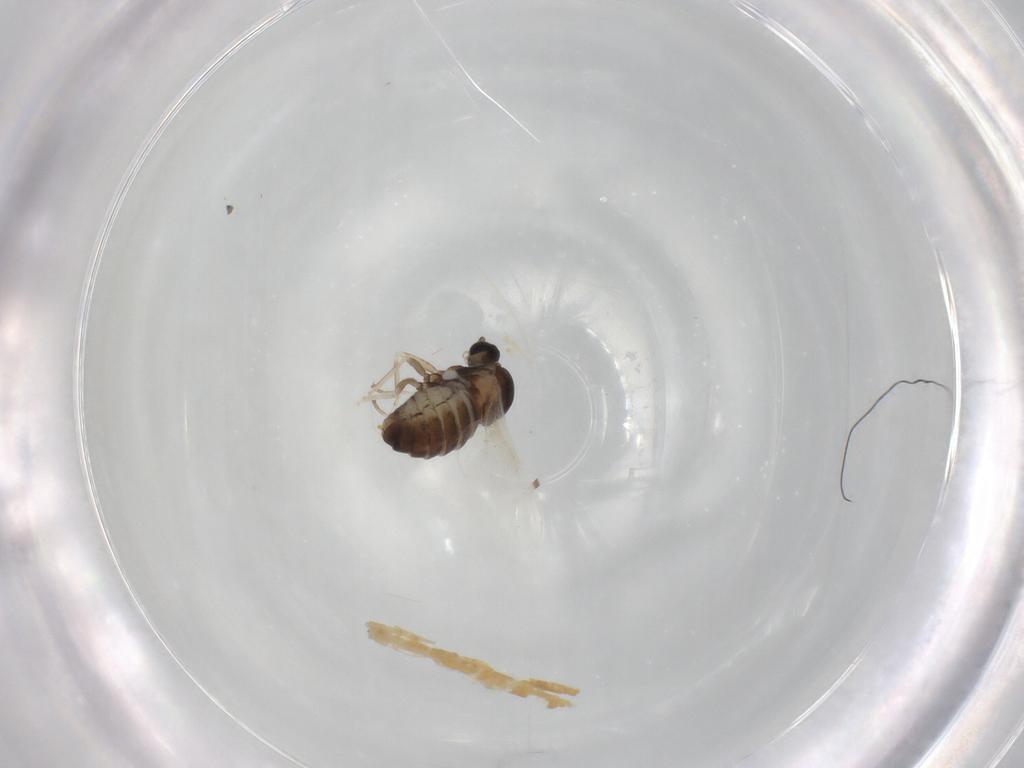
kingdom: Animalia
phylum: Arthropoda
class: Insecta
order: Diptera
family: Cecidomyiidae
